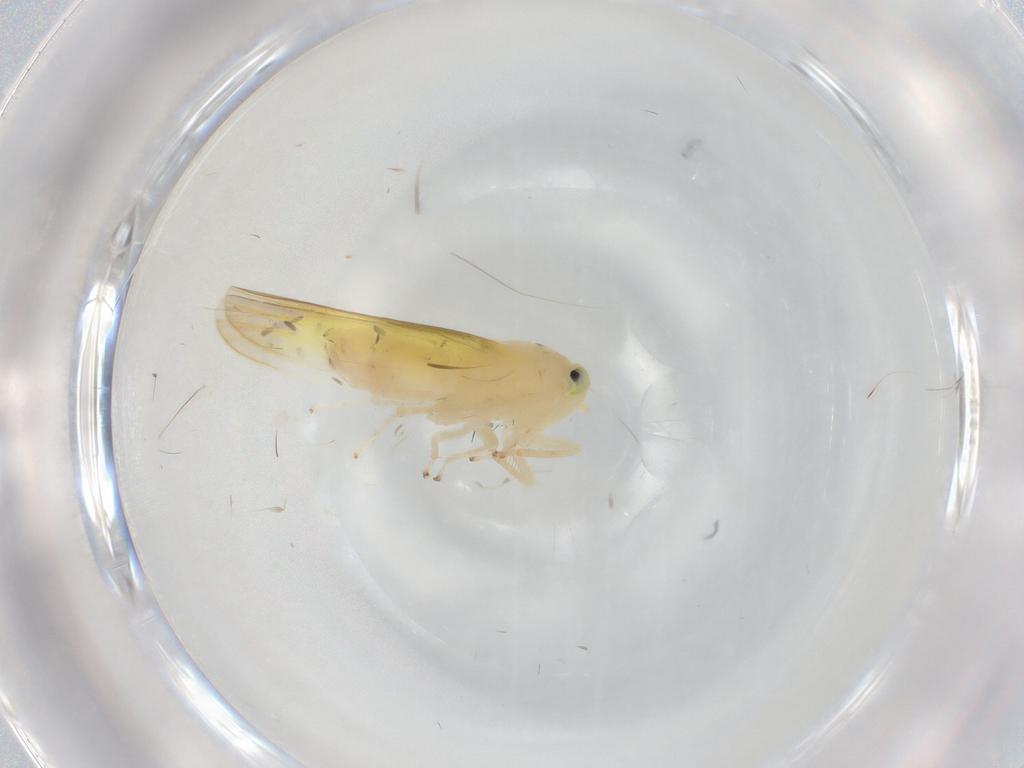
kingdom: Animalia
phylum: Arthropoda
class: Insecta
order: Hemiptera
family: Cicadellidae
